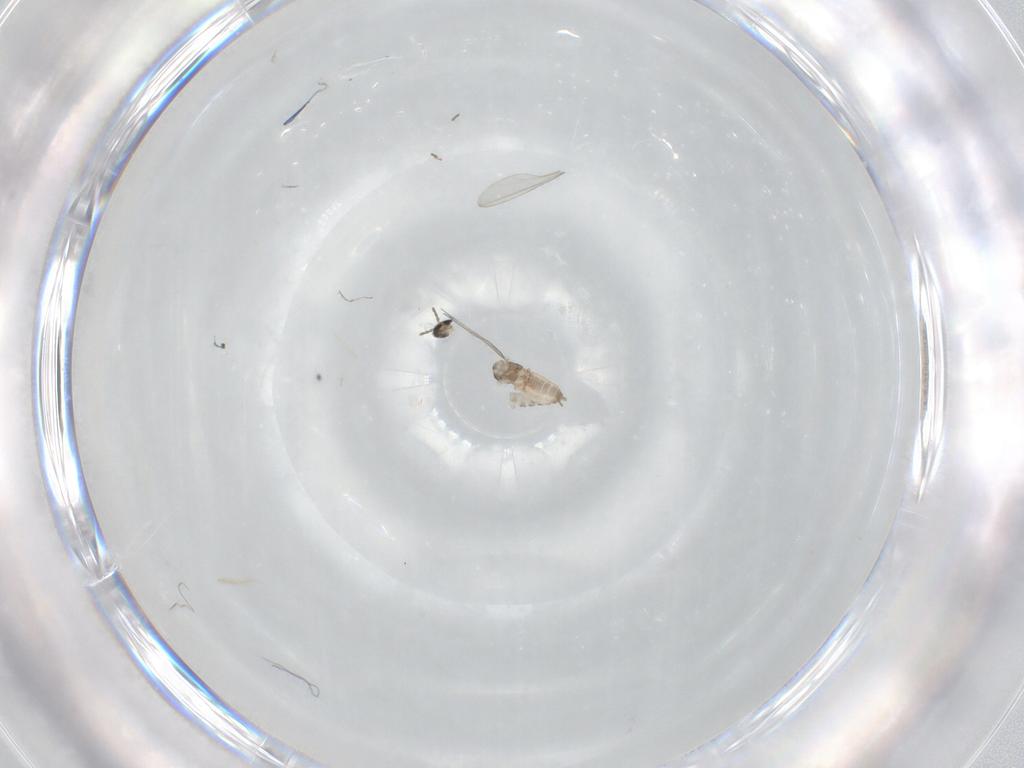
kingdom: Animalia
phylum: Arthropoda
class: Insecta
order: Diptera
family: Cecidomyiidae
